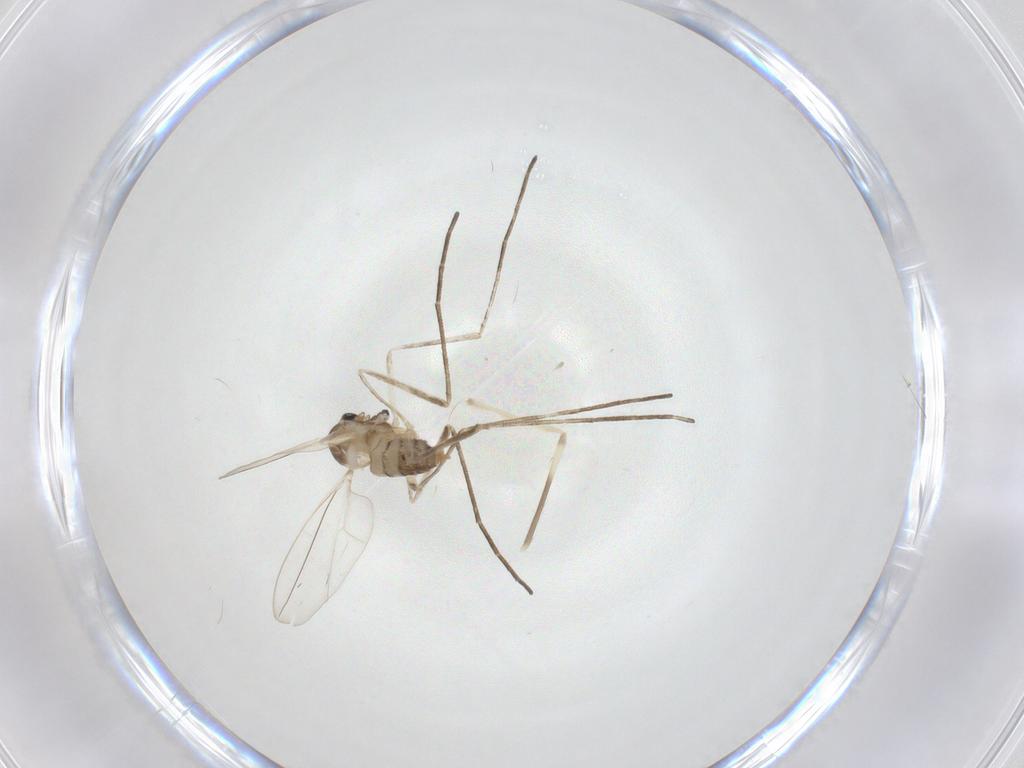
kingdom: Animalia
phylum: Arthropoda
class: Insecta
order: Diptera
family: Cecidomyiidae
